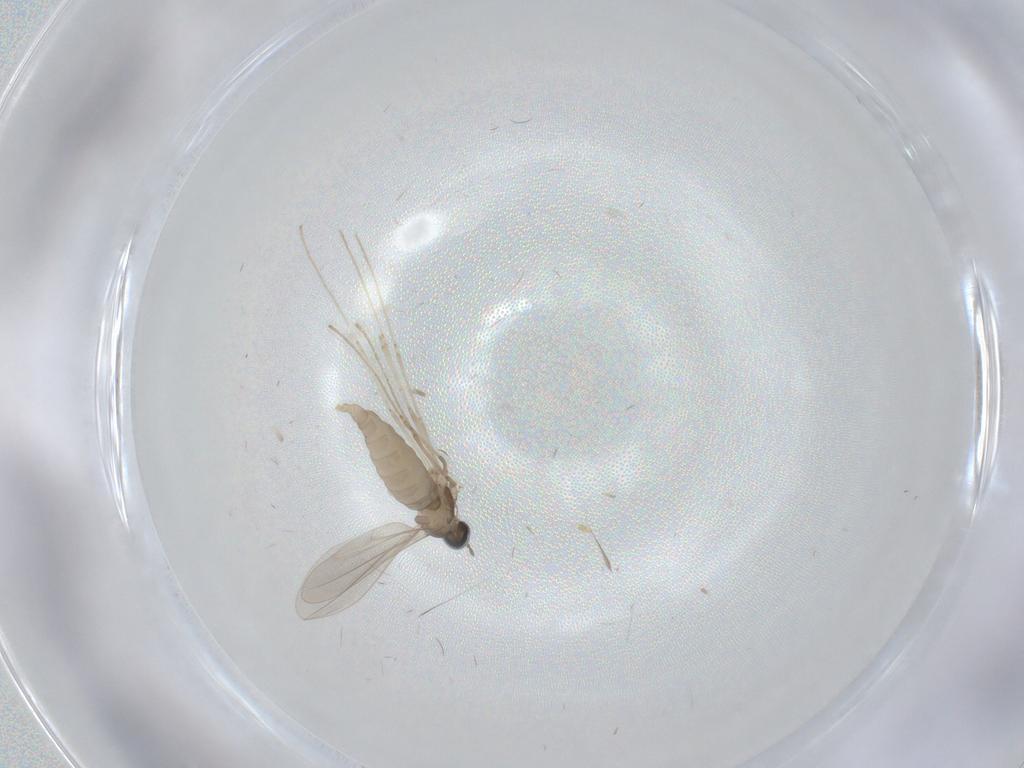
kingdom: Animalia
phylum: Arthropoda
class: Insecta
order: Diptera
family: Cecidomyiidae
